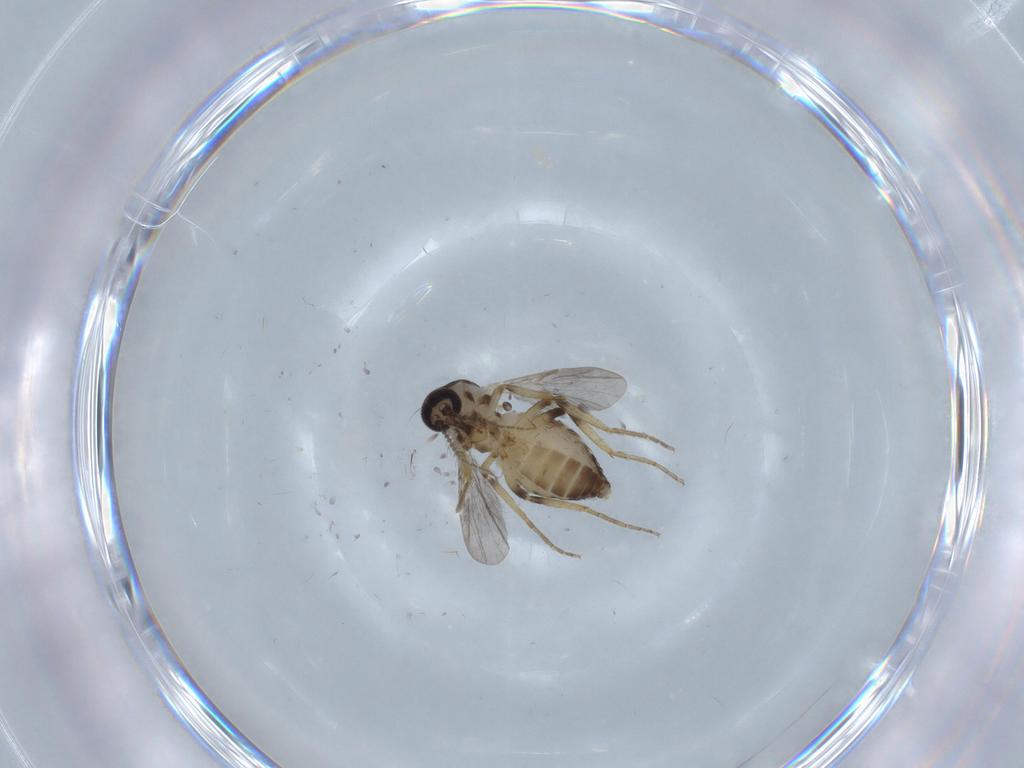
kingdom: Animalia
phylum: Arthropoda
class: Insecta
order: Diptera
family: Ceratopogonidae
